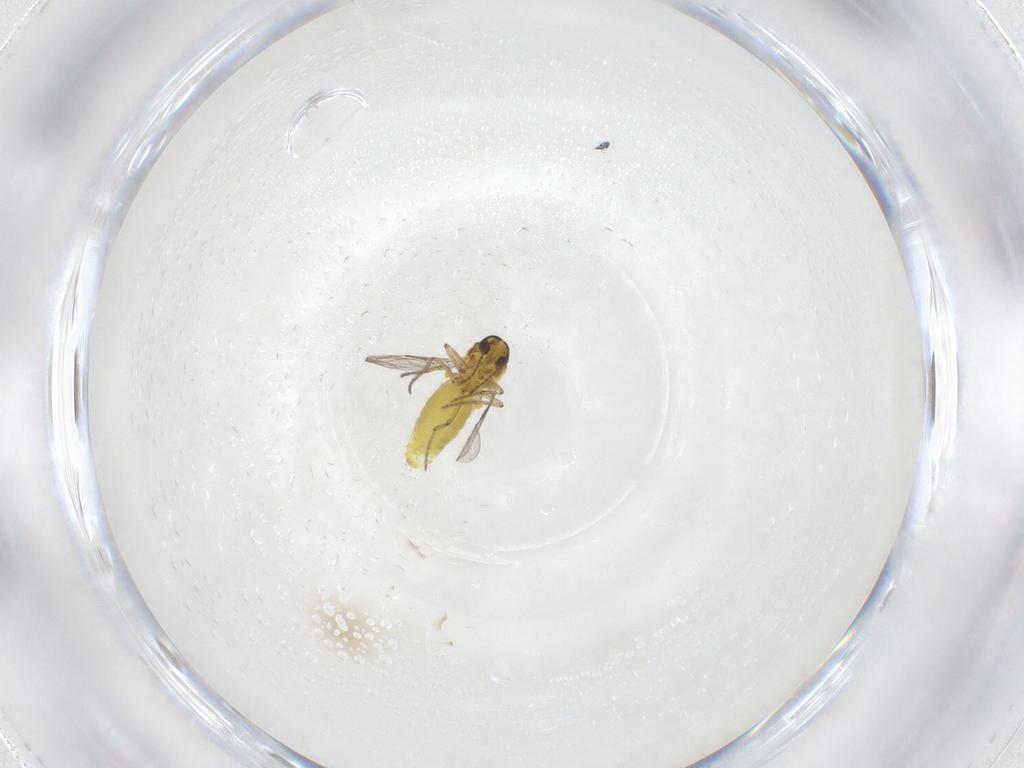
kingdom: Animalia
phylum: Arthropoda
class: Insecta
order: Diptera
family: Ceratopogonidae
